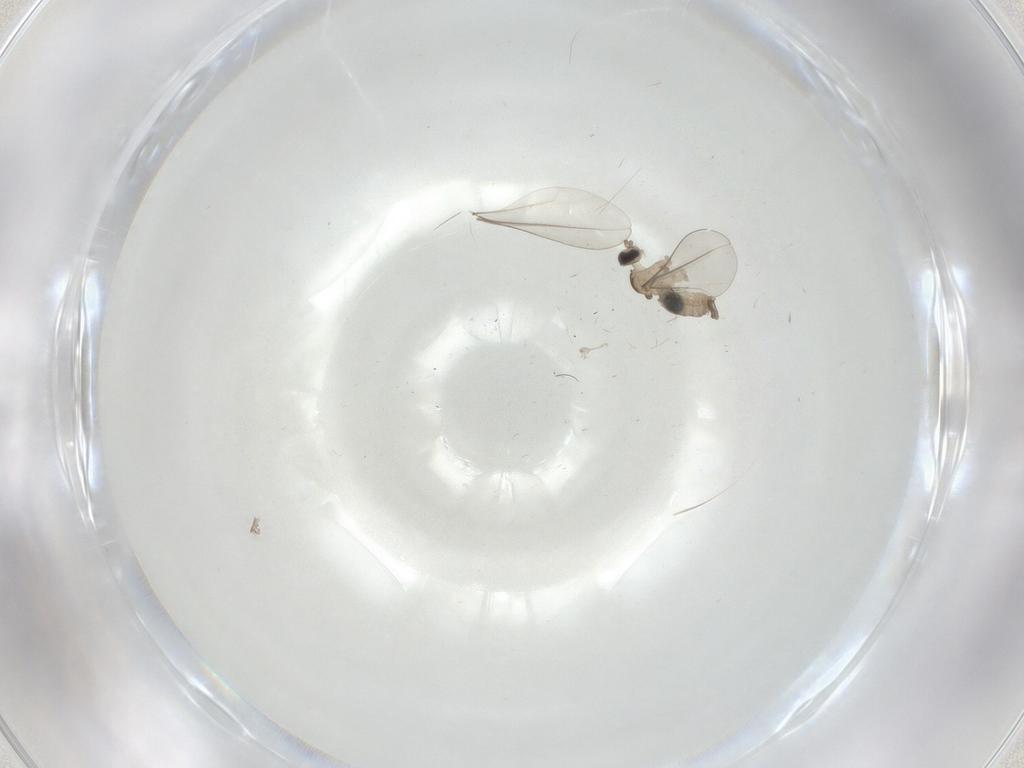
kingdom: Animalia
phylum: Arthropoda
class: Insecta
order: Diptera
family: Cecidomyiidae
